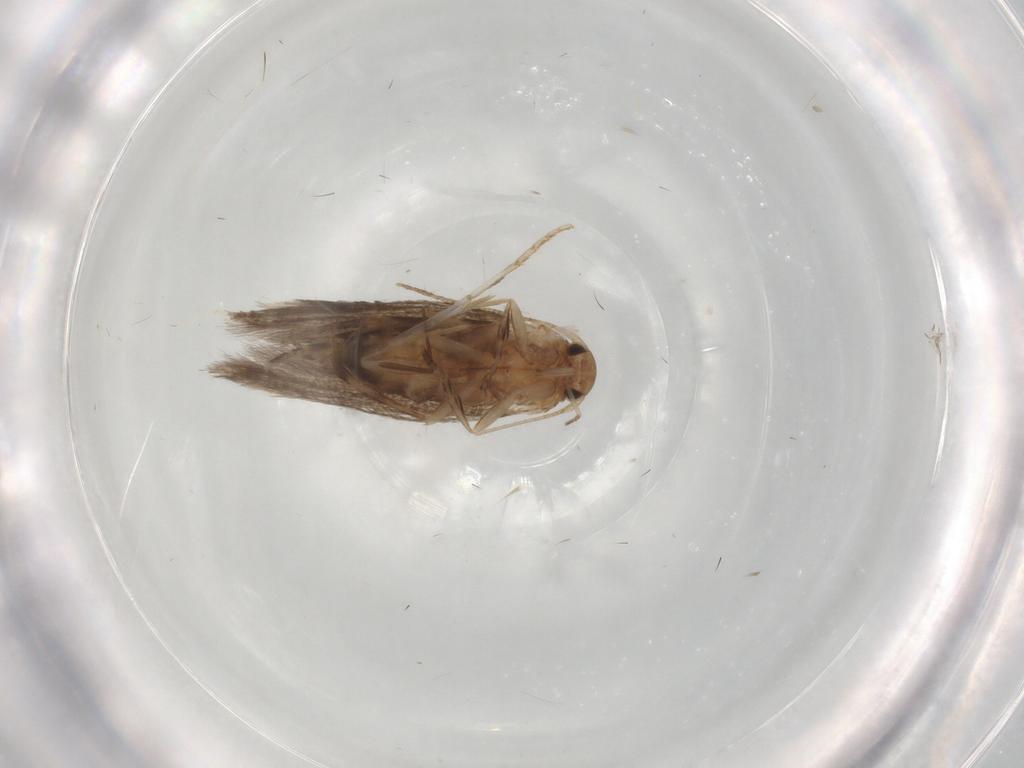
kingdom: Animalia
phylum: Arthropoda
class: Insecta
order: Lepidoptera
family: Elachistidae
